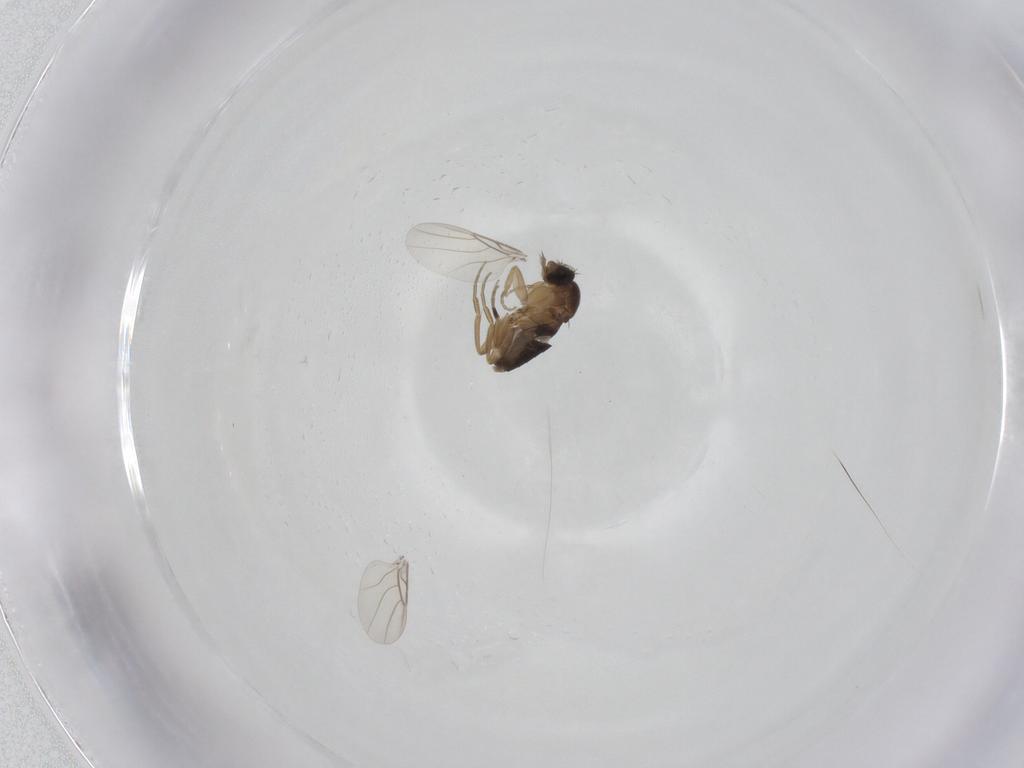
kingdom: Animalia
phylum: Arthropoda
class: Insecta
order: Diptera
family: Phoridae
